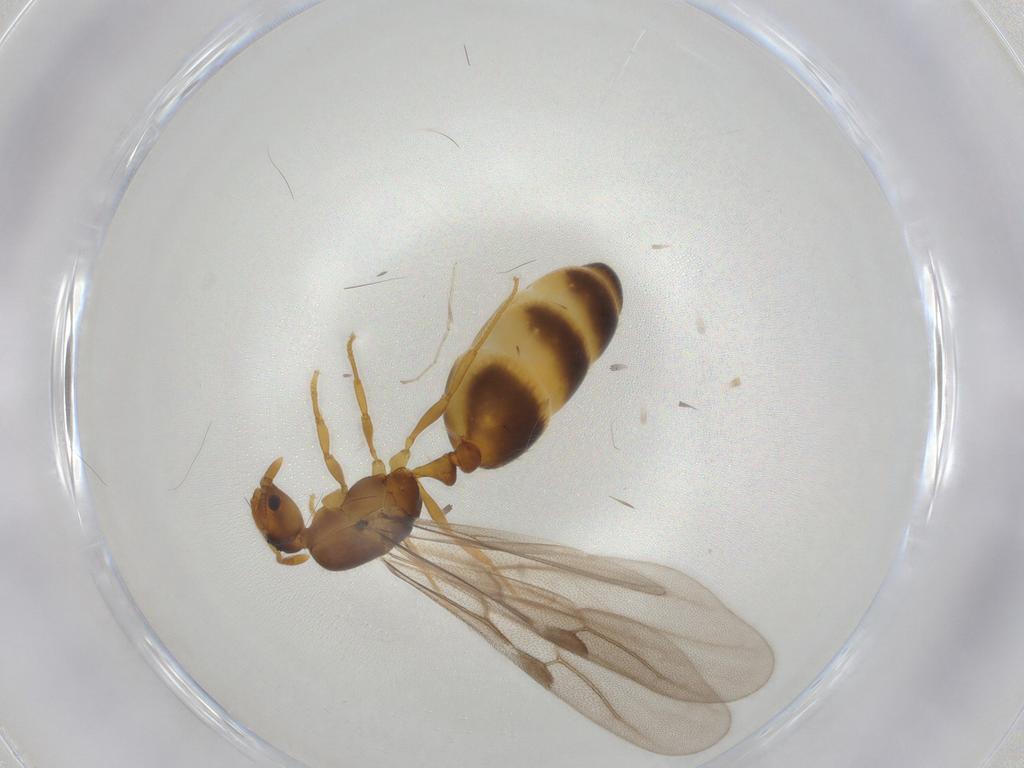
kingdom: Animalia
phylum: Arthropoda
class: Insecta
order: Hymenoptera
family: Formicidae
